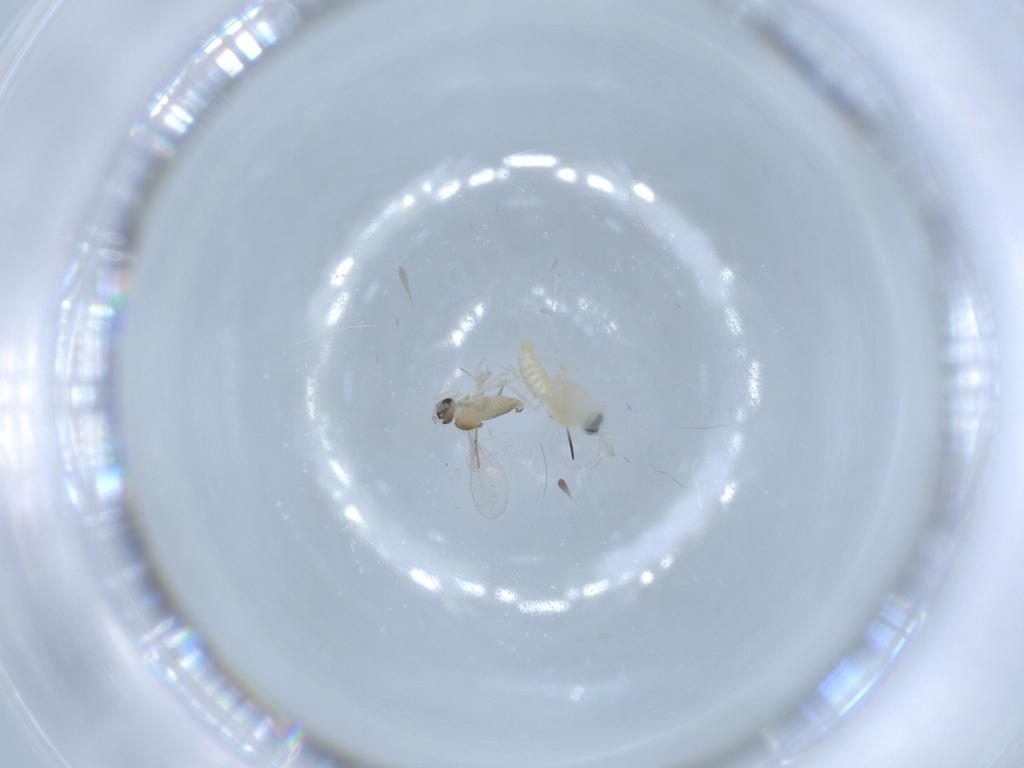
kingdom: Animalia
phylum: Arthropoda
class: Insecta
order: Diptera
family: Cecidomyiidae
